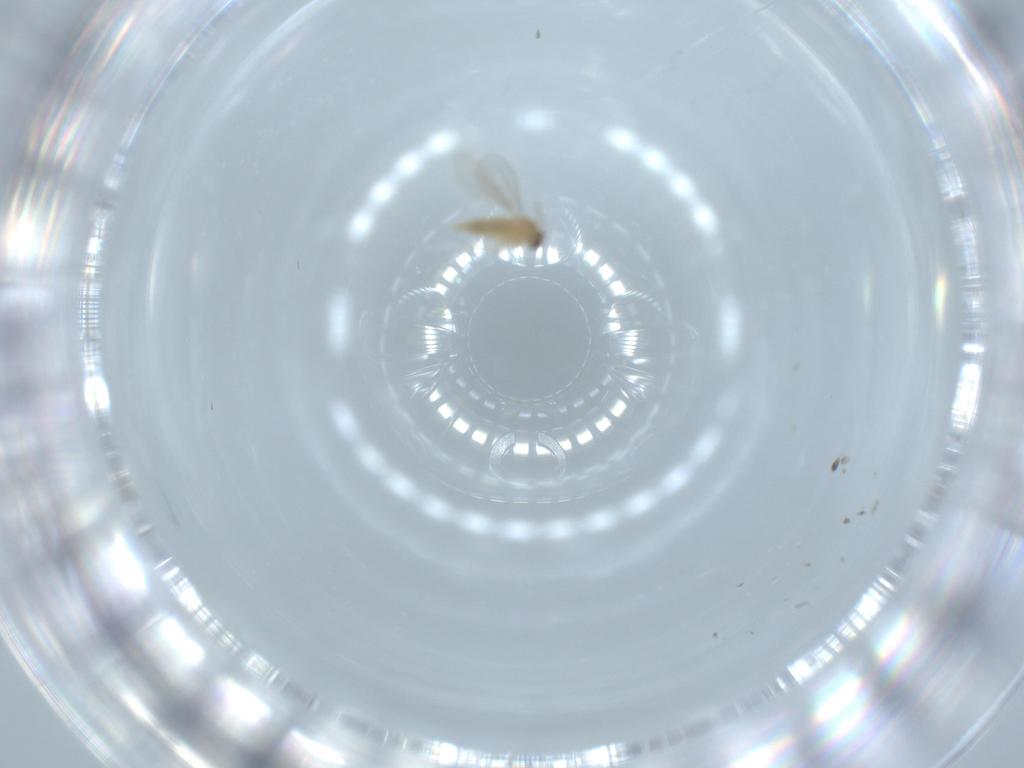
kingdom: Animalia
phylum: Arthropoda
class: Insecta
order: Diptera
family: Cecidomyiidae
